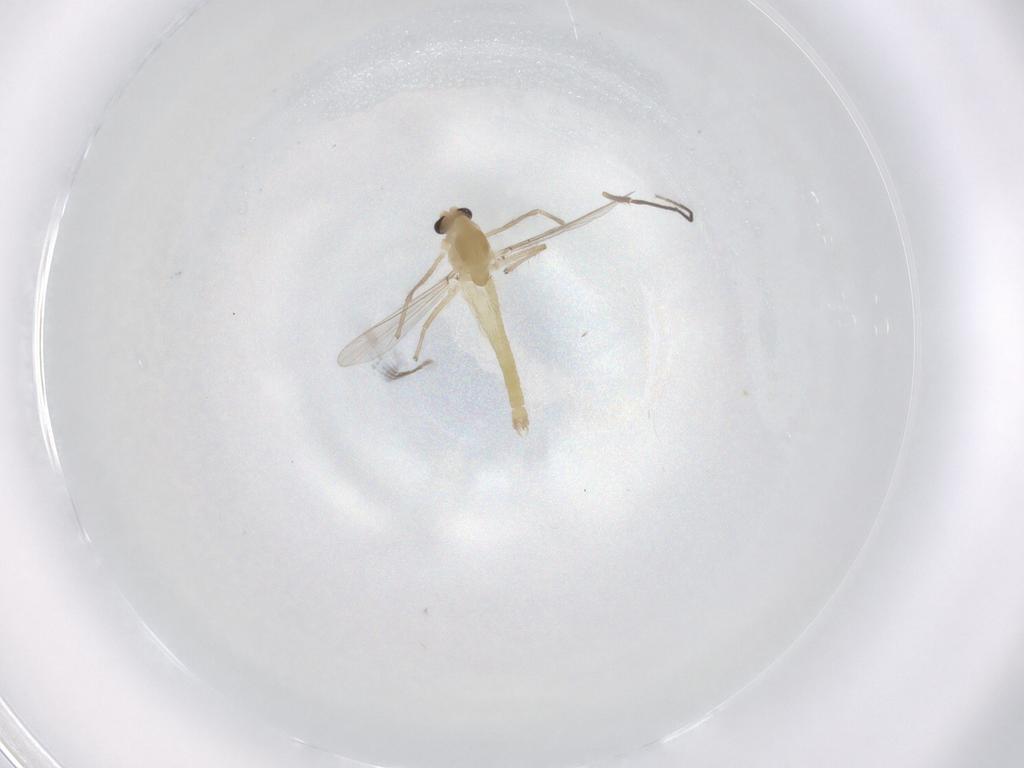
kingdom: Animalia
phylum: Arthropoda
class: Insecta
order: Diptera
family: Chironomidae
